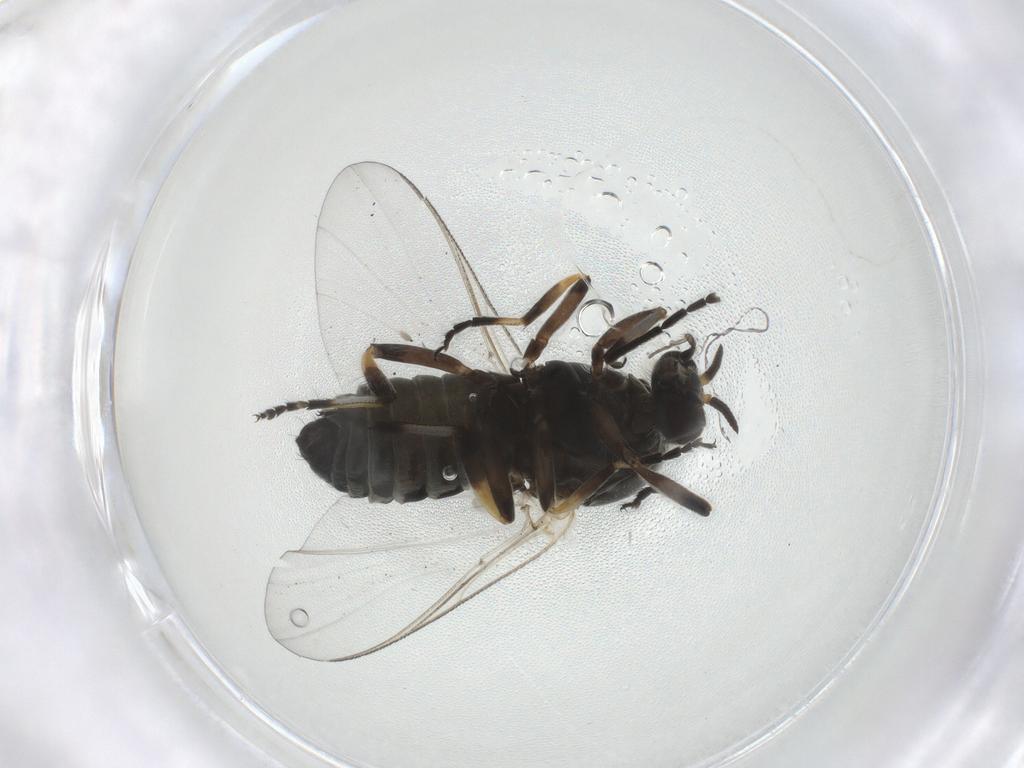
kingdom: Animalia
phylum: Arthropoda
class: Insecta
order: Diptera
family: Simuliidae
